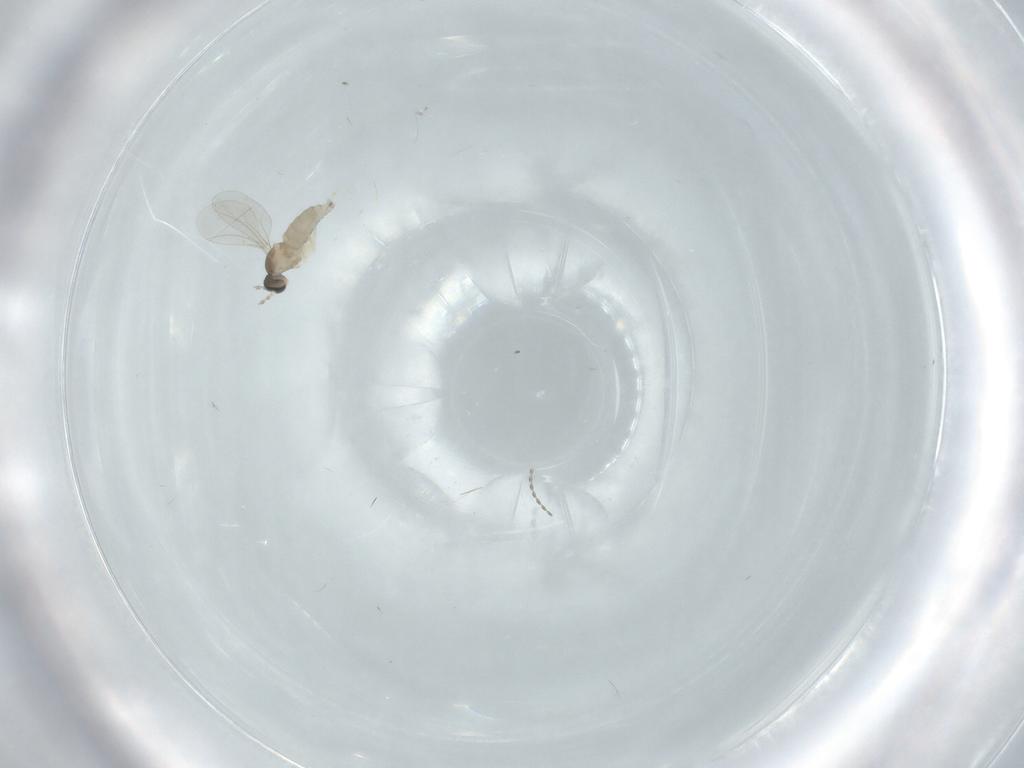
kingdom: Animalia
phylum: Arthropoda
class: Insecta
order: Diptera
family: Cecidomyiidae
